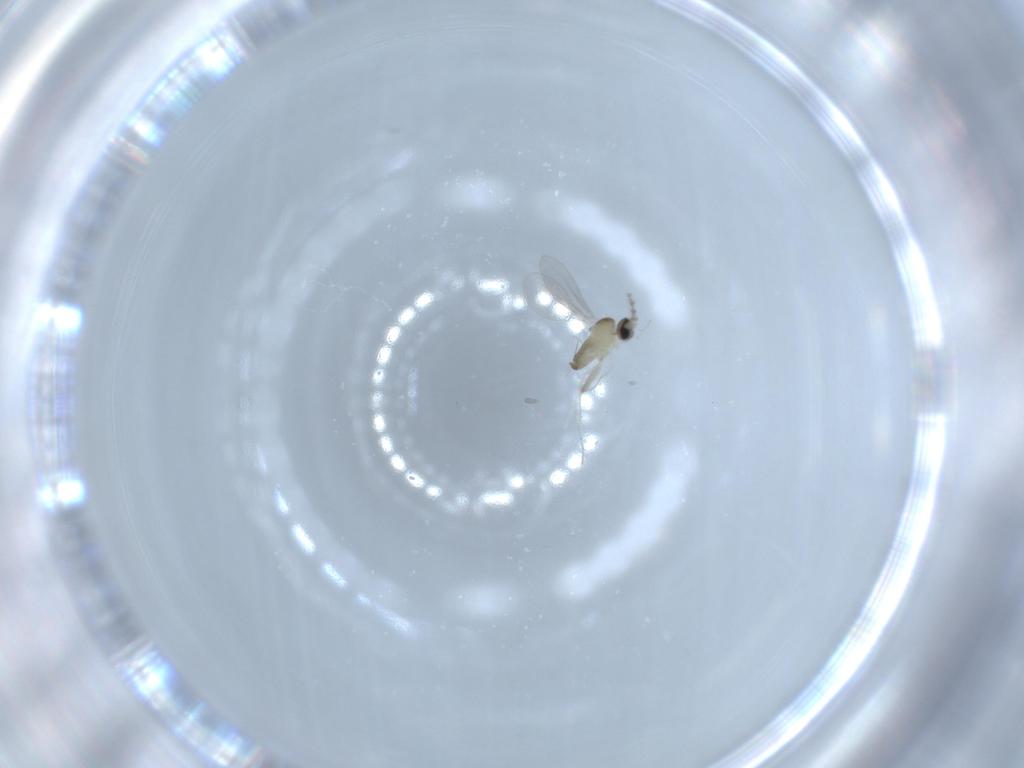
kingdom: Animalia
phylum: Arthropoda
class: Insecta
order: Diptera
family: Cecidomyiidae
